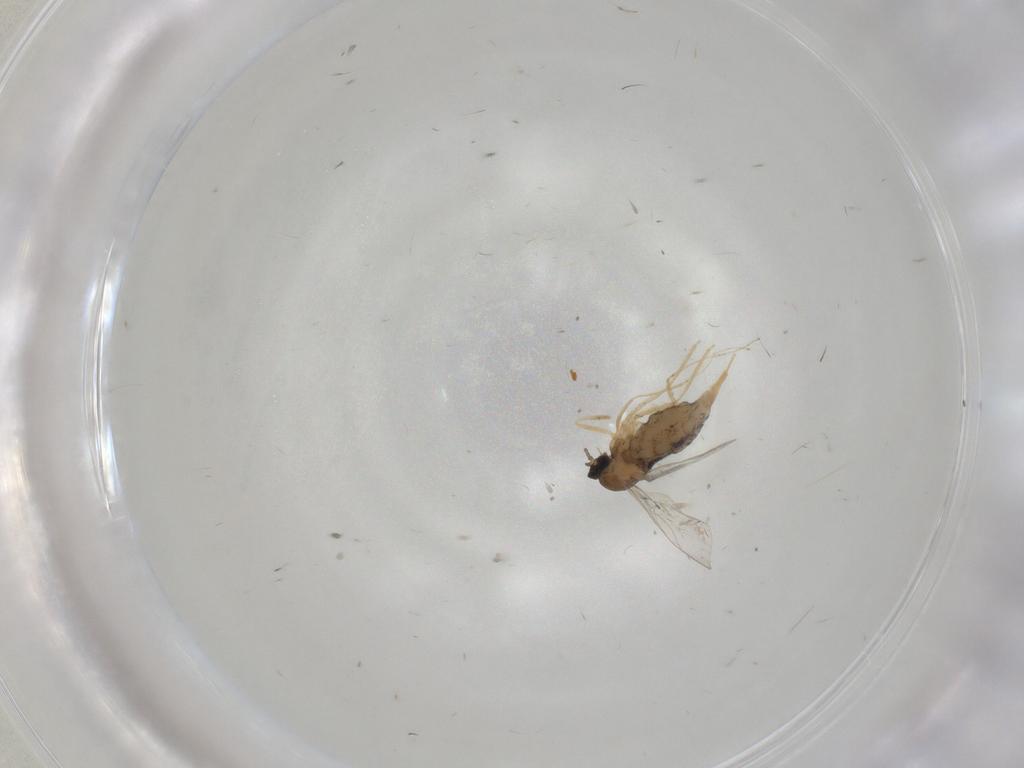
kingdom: Animalia
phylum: Arthropoda
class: Insecta
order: Diptera
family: Cecidomyiidae
